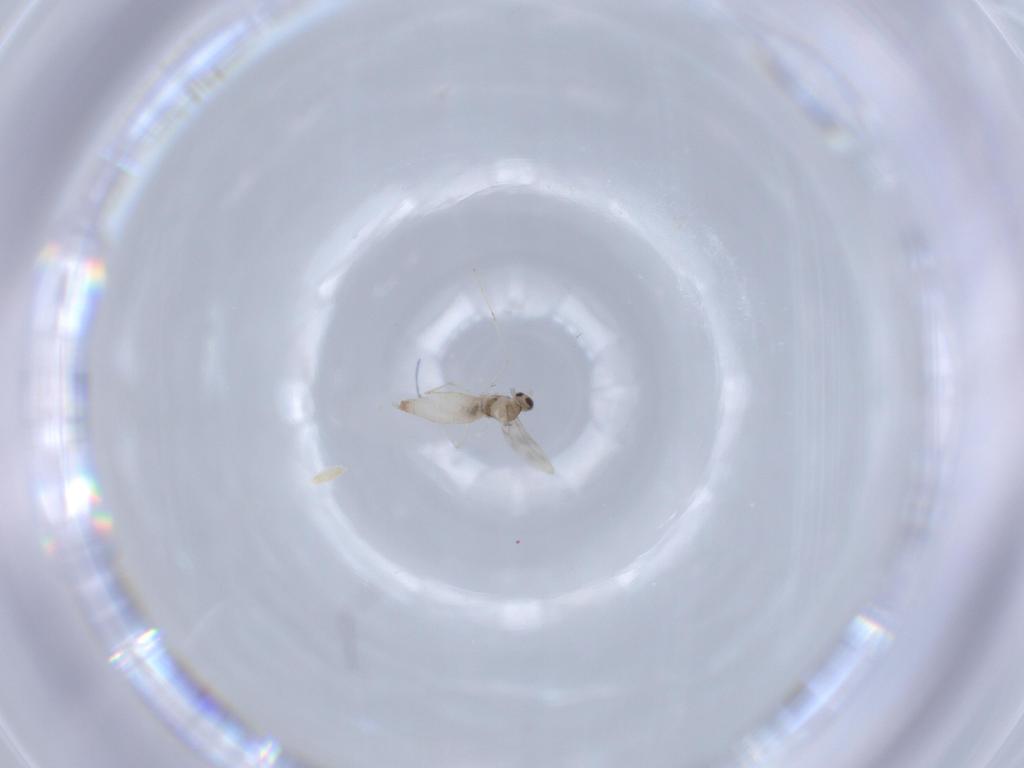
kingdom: Animalia
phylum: Arthropoda
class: Insecta
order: Diptera
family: Cecidomyiidae
